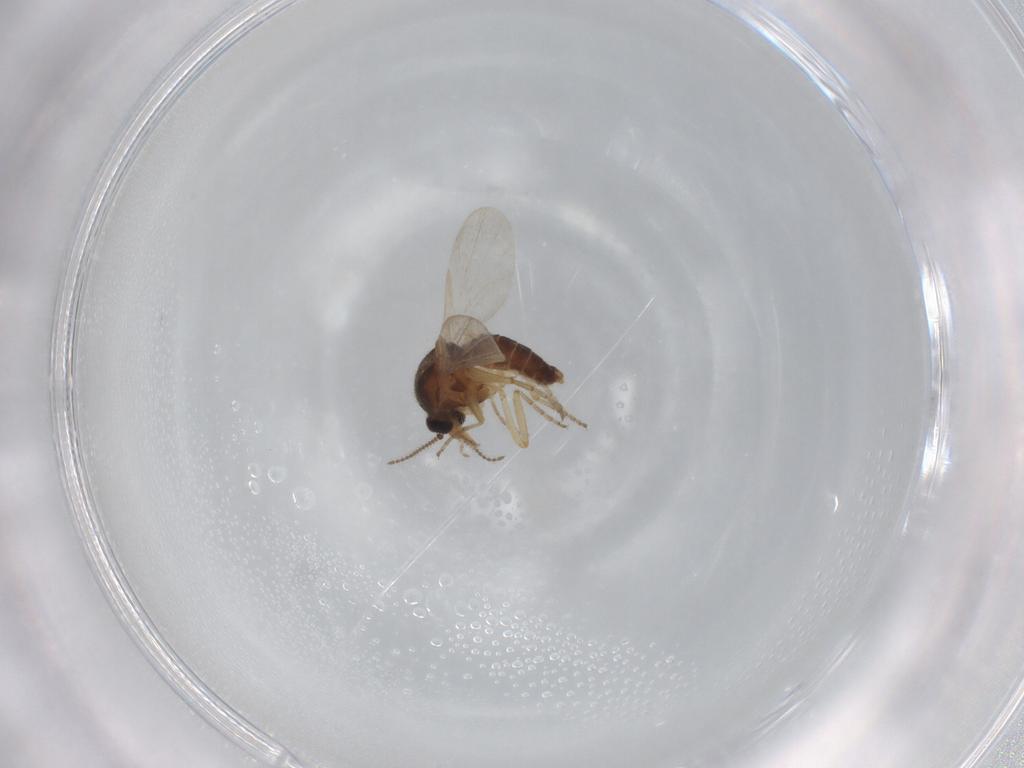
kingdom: Animalia
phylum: Arthropoda
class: Insecta
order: Diptera
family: Ceratopogonidae
